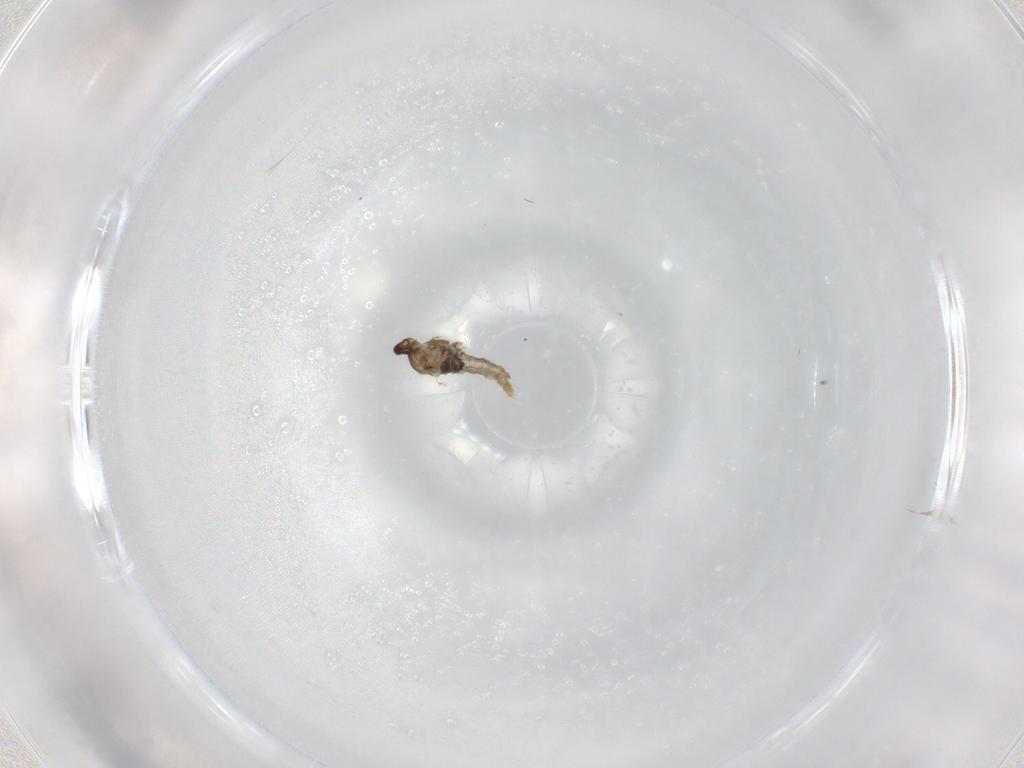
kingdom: Animalia
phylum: Arthropoda
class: Insecta
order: Diptera
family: Cecidomyiidae
